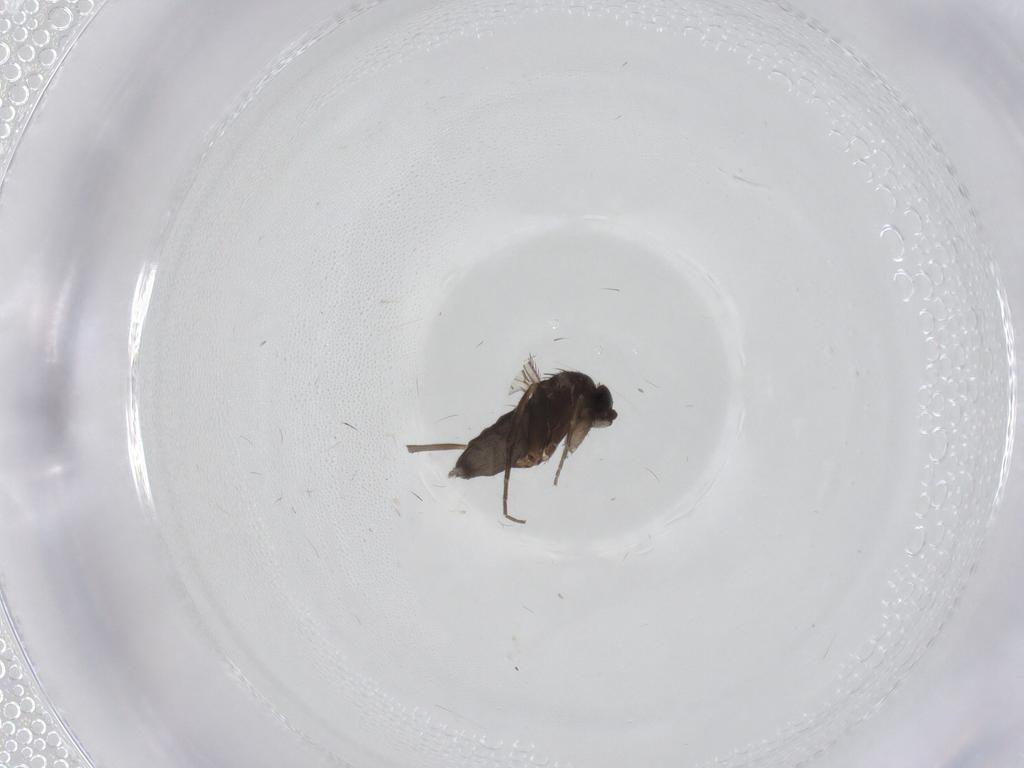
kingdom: Animalia
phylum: Arthropoda
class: Insecta
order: Diptera
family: Phoridae
